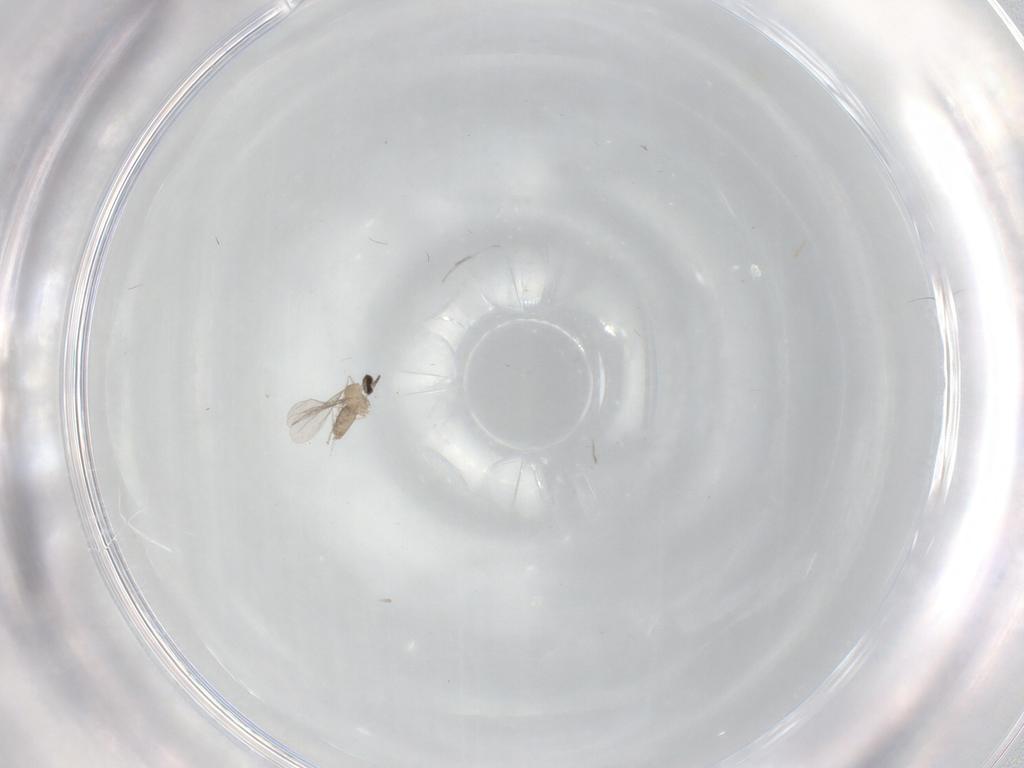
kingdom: Animalia
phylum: Arthropoda
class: Insecta
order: Diptera
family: Cecidomyiidae
